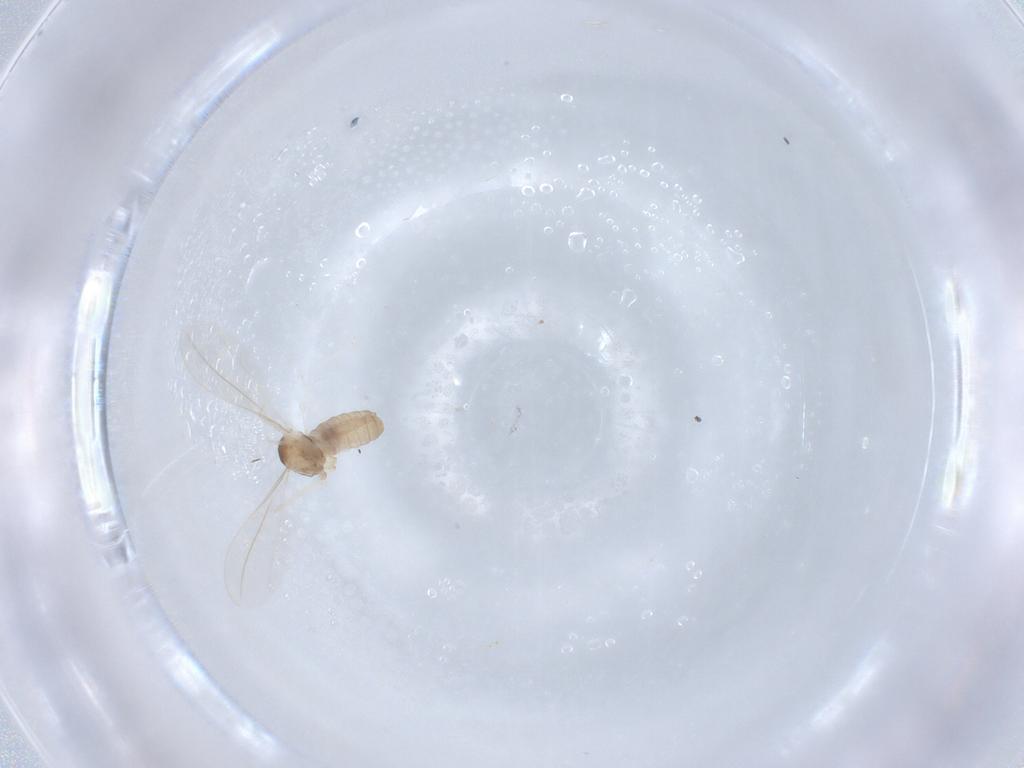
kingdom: Animalia
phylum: Arthropoda
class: Insecta
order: Diptera
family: Cecidomyiidae
